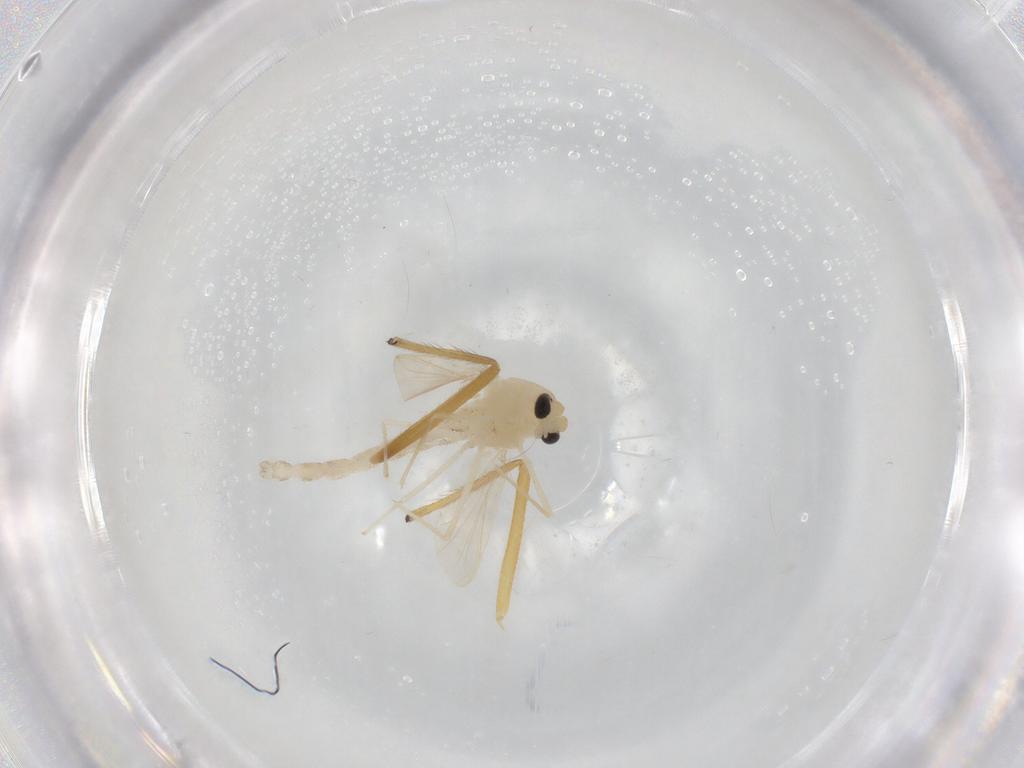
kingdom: Animalia
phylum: Arthropoda
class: Insecta
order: Diptera
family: Chironomidae
